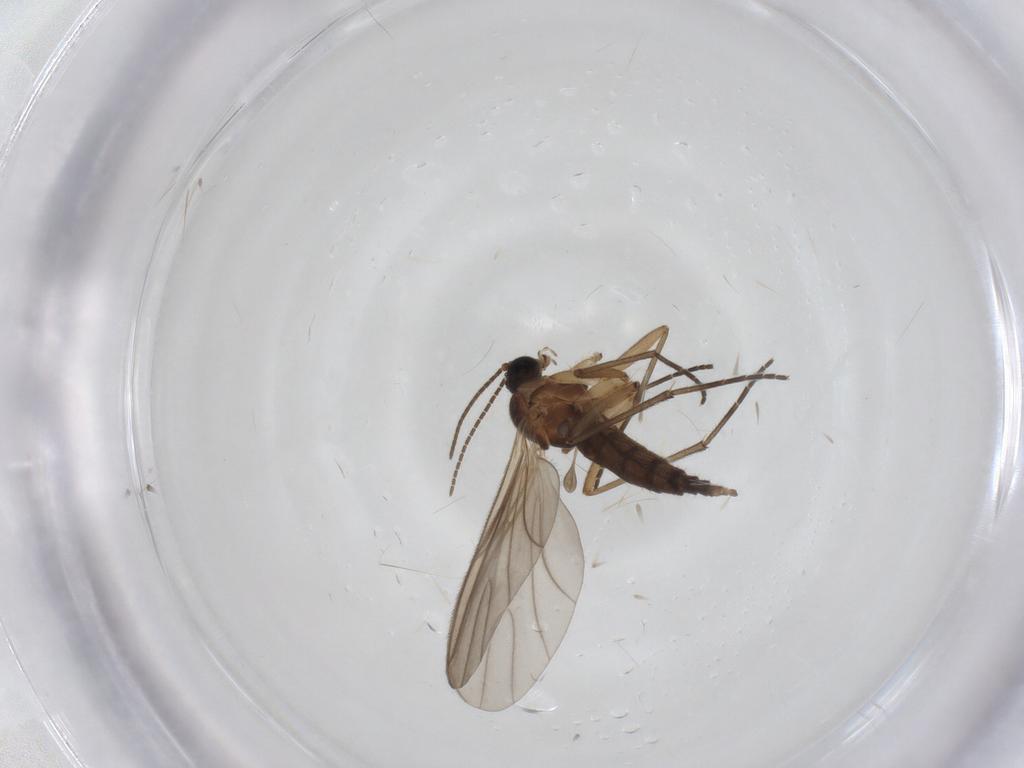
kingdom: Animalia
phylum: Arthropoda
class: Insecta
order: Diptera
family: Sciaridae
